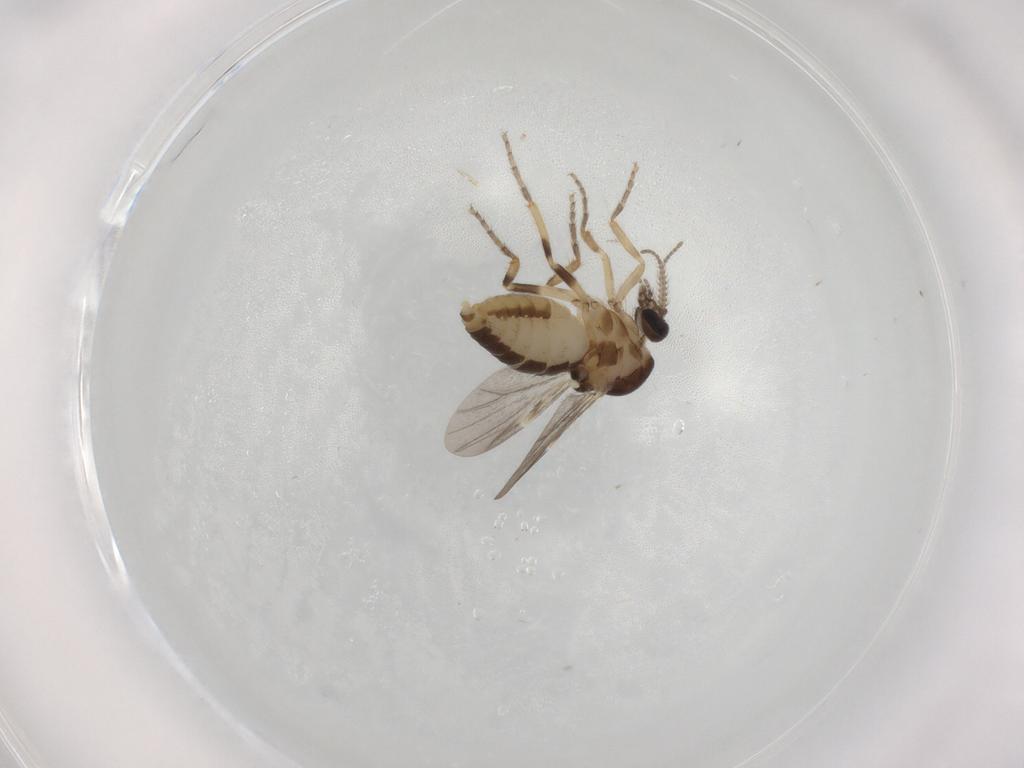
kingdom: Animalia
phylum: Arthropoda
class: Insecta
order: Diptera
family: Ceratopogonidae
